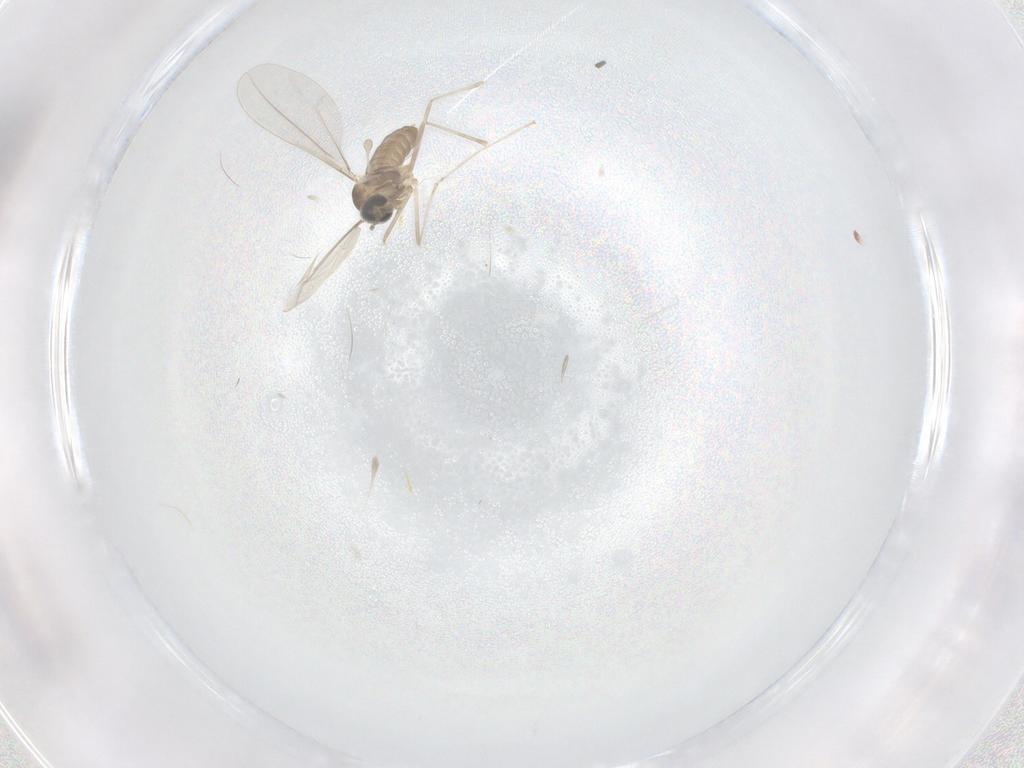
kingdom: Animalia
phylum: Arthropoda
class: Insecta
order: Diptera
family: Cecidomyiidae
